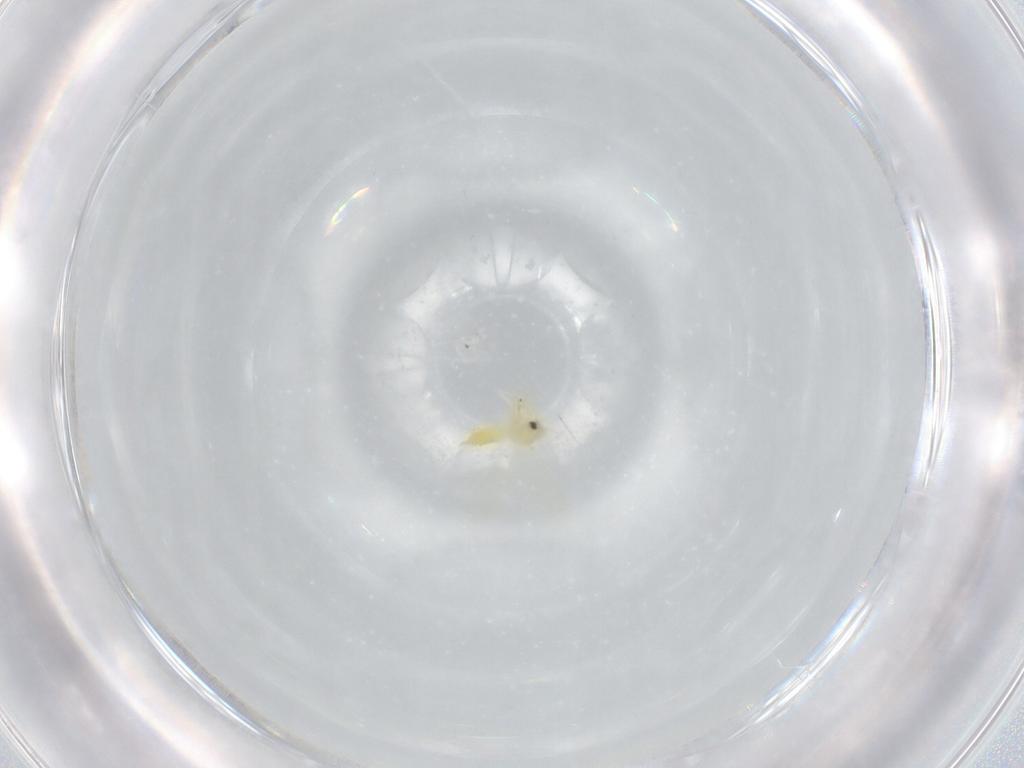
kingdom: Animalia
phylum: Arthropoda
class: Insecta
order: Hemiptera
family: Aleyrodidae
